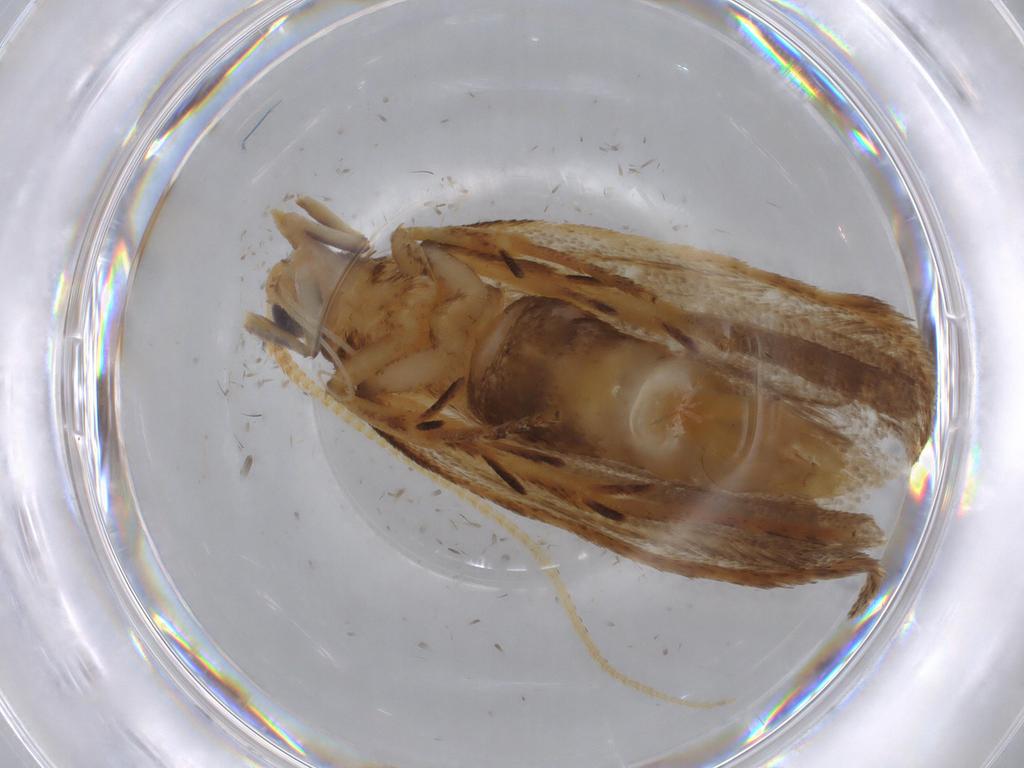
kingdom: Animalia
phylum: Arthropoda
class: Insecta
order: Lepidoptera
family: Lecithoceridae
